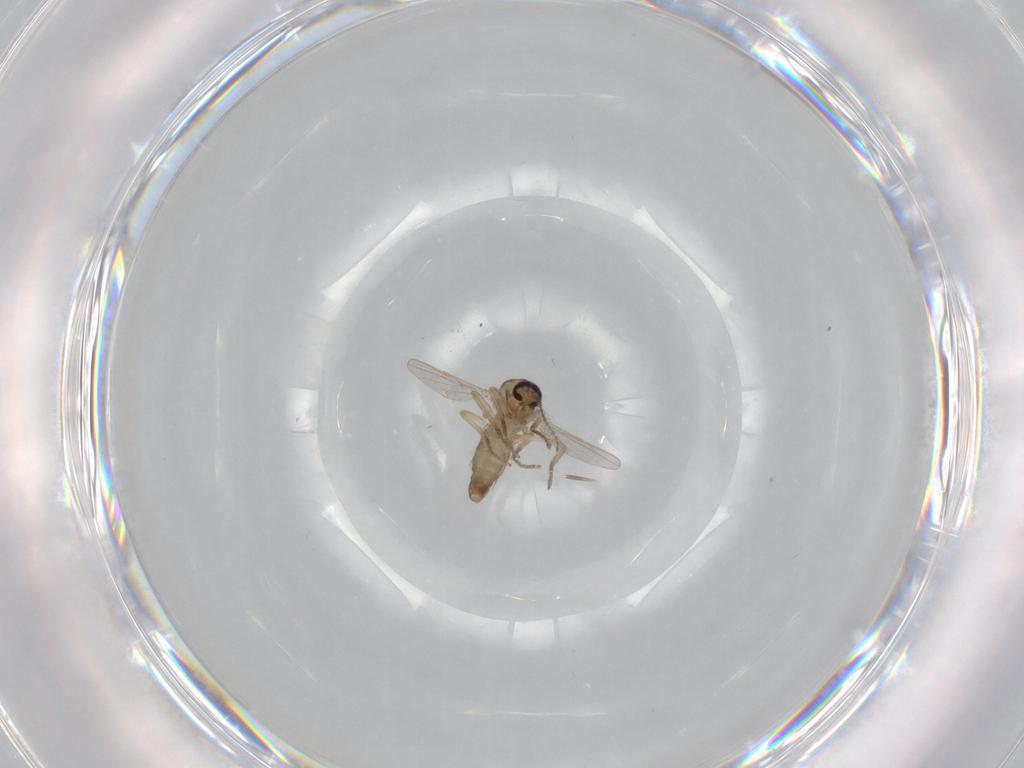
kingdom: Animalia
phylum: Arthropoda
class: Insecta
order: Diptera
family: Ceratopogonidae
